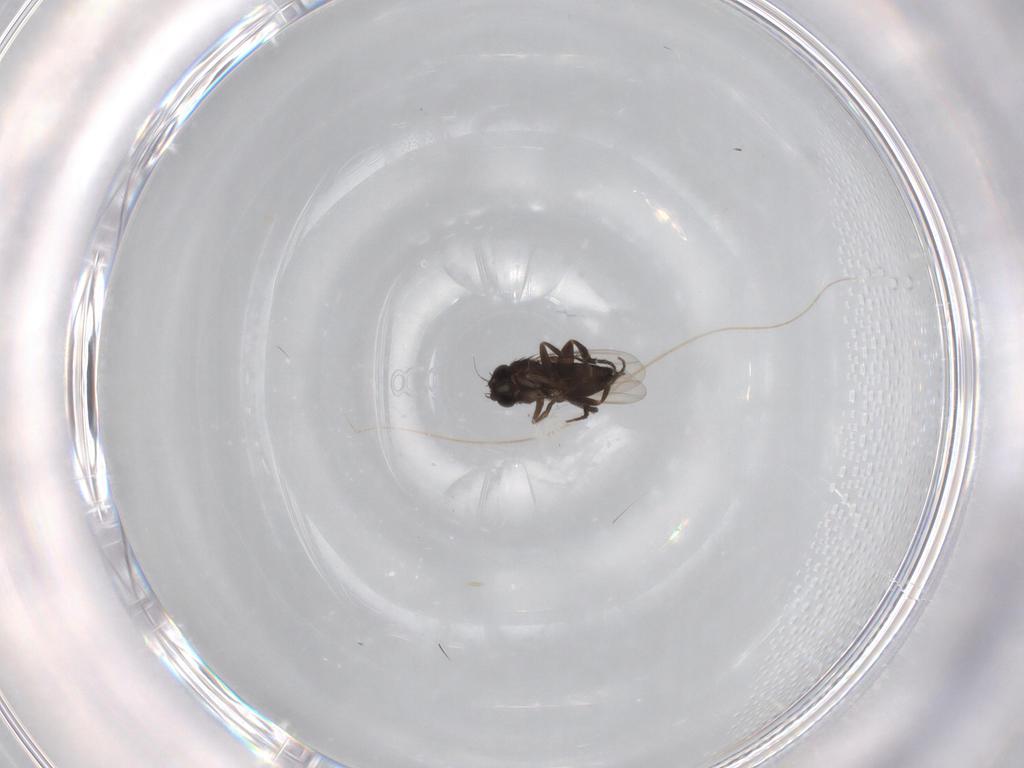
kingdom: Animalia
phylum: Arthropoda
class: Insecta
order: Diptera
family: Phoridae
